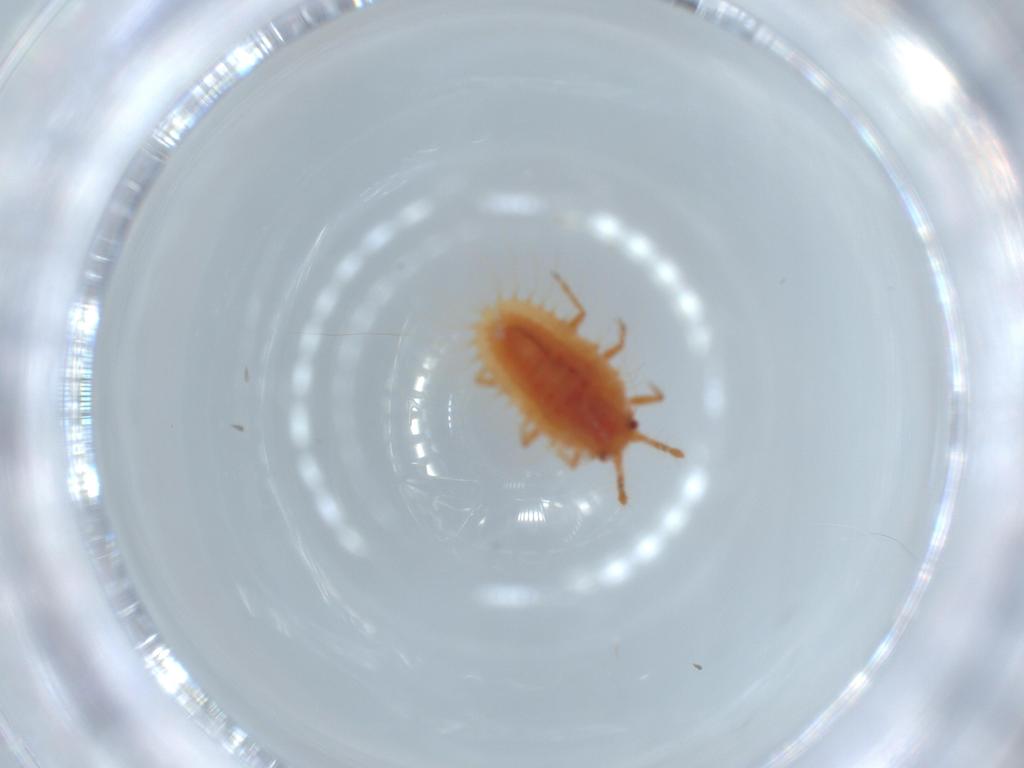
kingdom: Animalia
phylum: Arthropoda
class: Insecta
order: Hemiptera
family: Coccoidea_incertae_sedis
